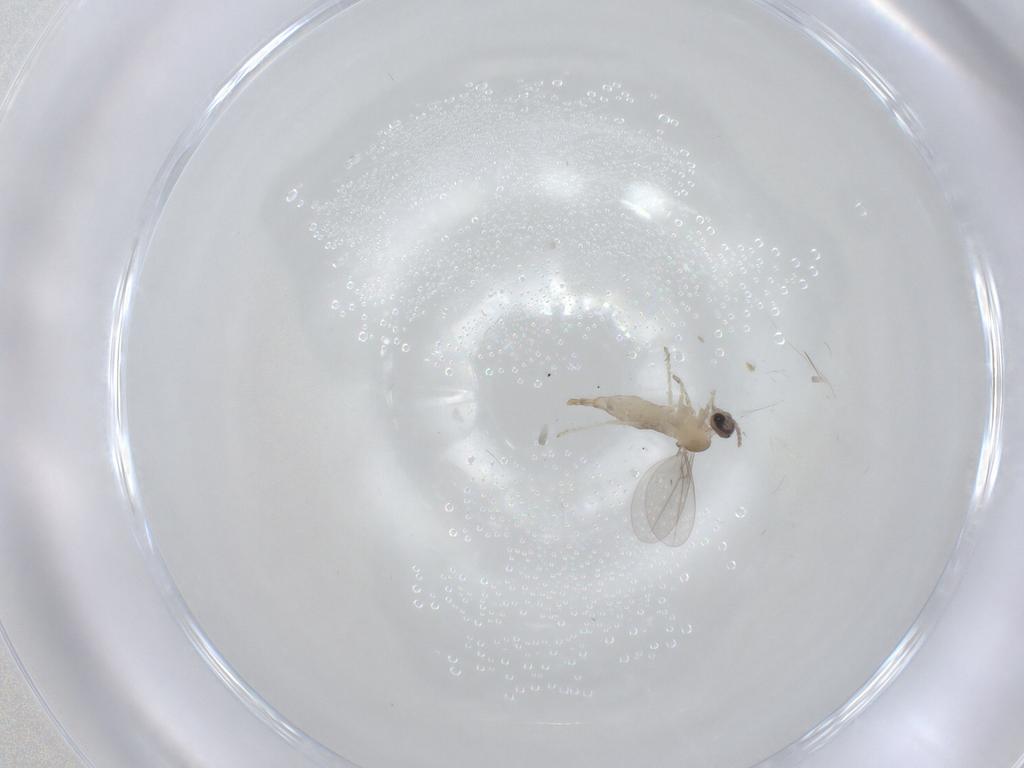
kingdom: Animalia
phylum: Arthropoda
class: Insecta
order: Diptera
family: Cecidomyiidae
